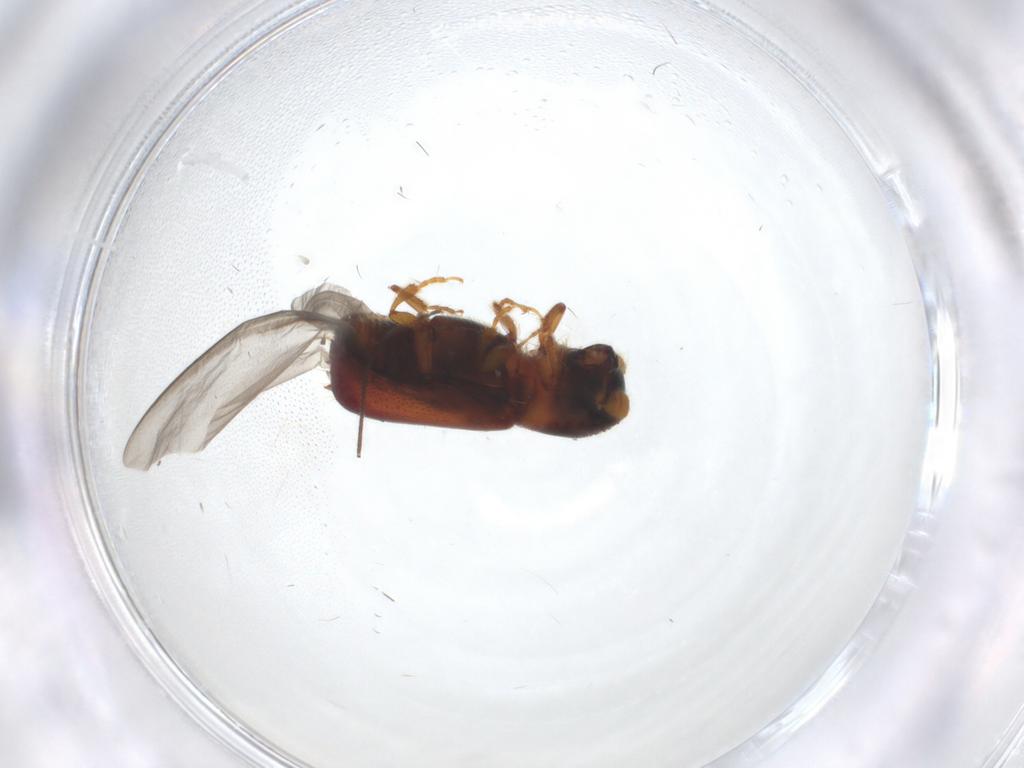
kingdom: Animalia
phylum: Arthropoda
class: Insecta
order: Coleoptera
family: Curculionidae
